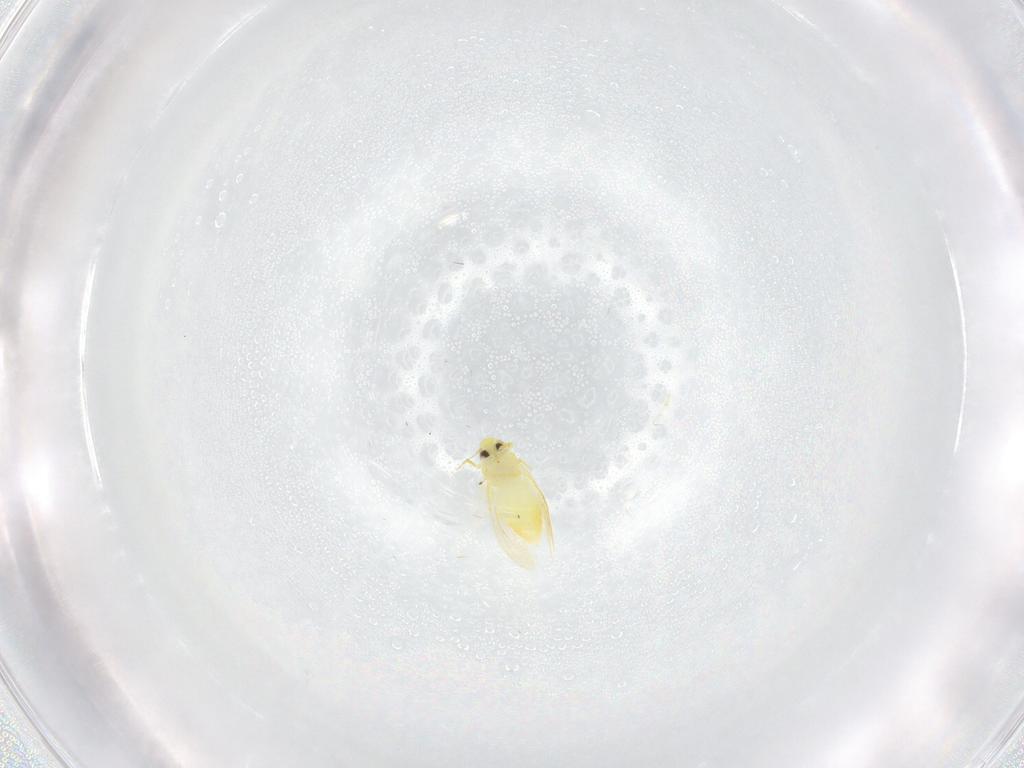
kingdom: Animalia
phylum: Arthropoda
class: Insecta
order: Hemiptera
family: Aleyrodidae
